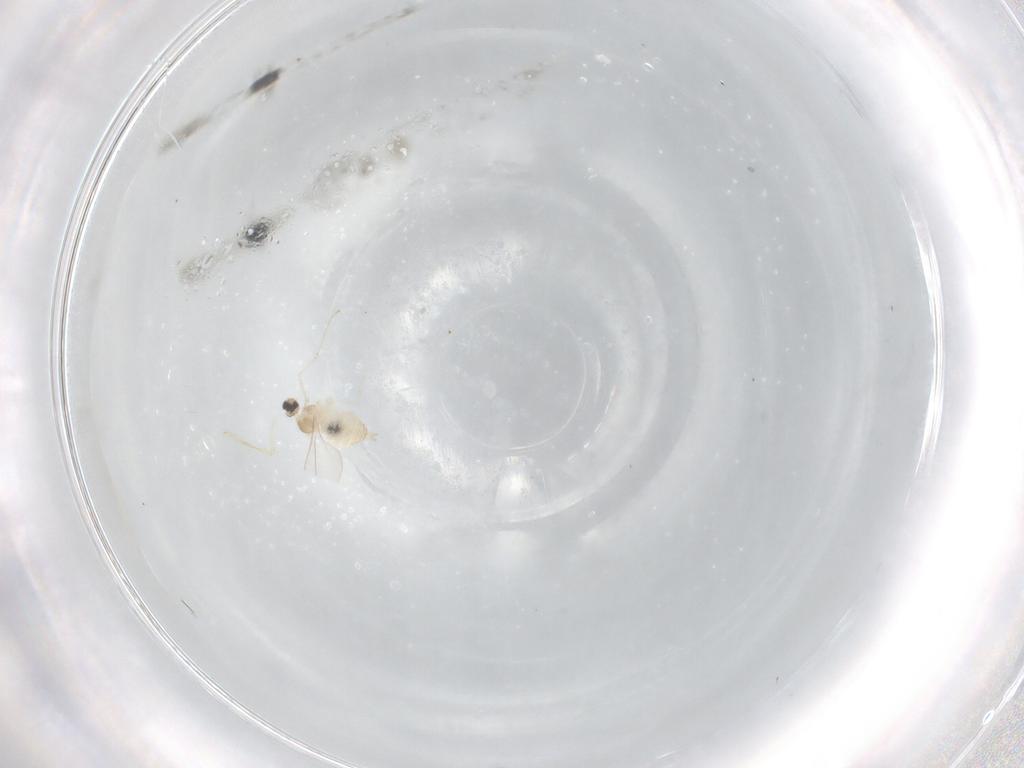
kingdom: Animalia
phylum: Arthropoda
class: Insecta
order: Diptera
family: Cecidomyiidae
